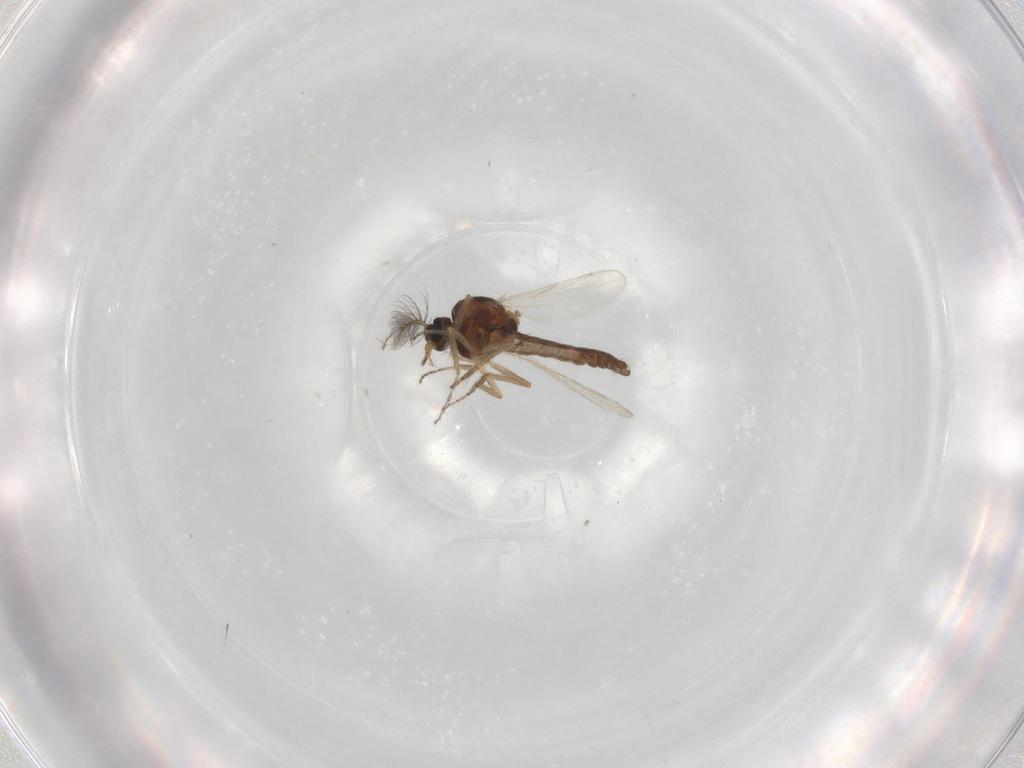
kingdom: Animalia
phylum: Arthropoda
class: Insecta
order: Diptera
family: Ceratopogonidae
